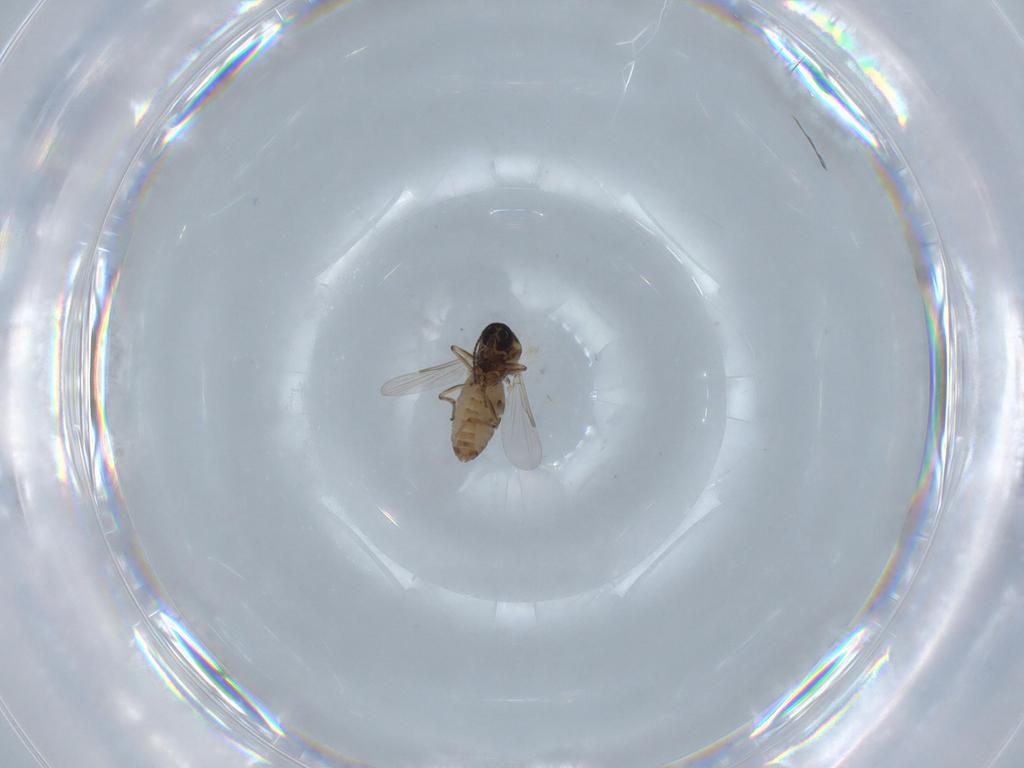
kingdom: Animalia
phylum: Arthropoda
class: Insecta
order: Diptera
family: Ceratopogonidae
